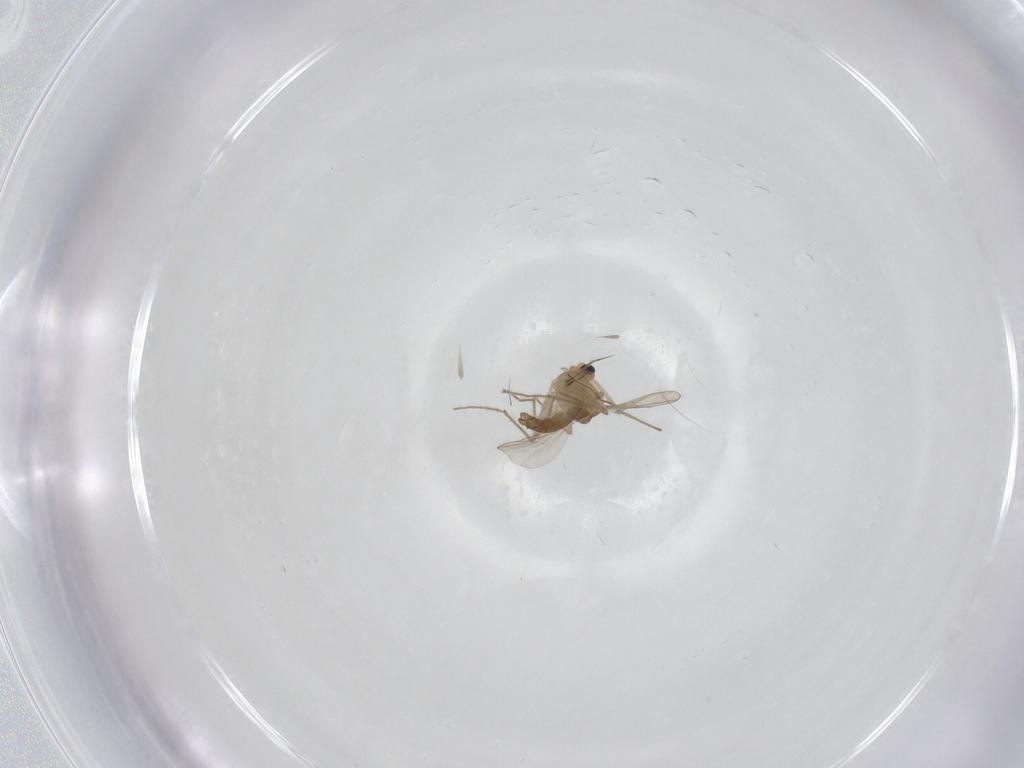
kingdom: Animalia
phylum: Arthropoda
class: Insecta
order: Diptera
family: Chironomidae
